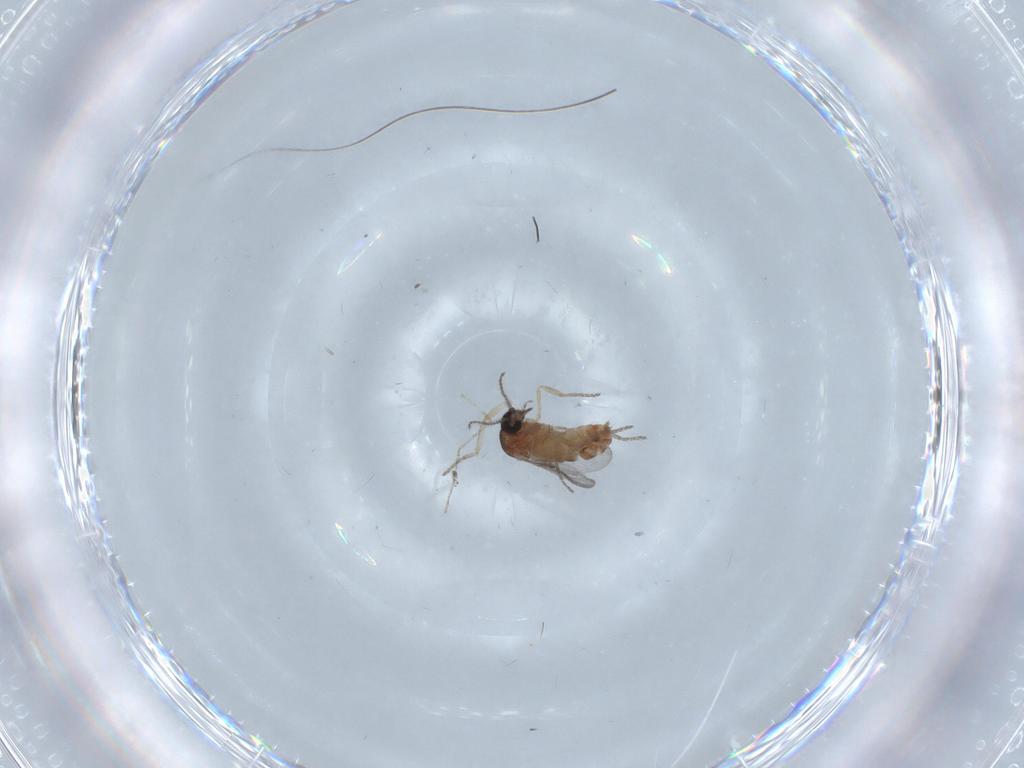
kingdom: Animalia
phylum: Arthropoda
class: Insecta
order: Diptera
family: Ceratopogonidae
